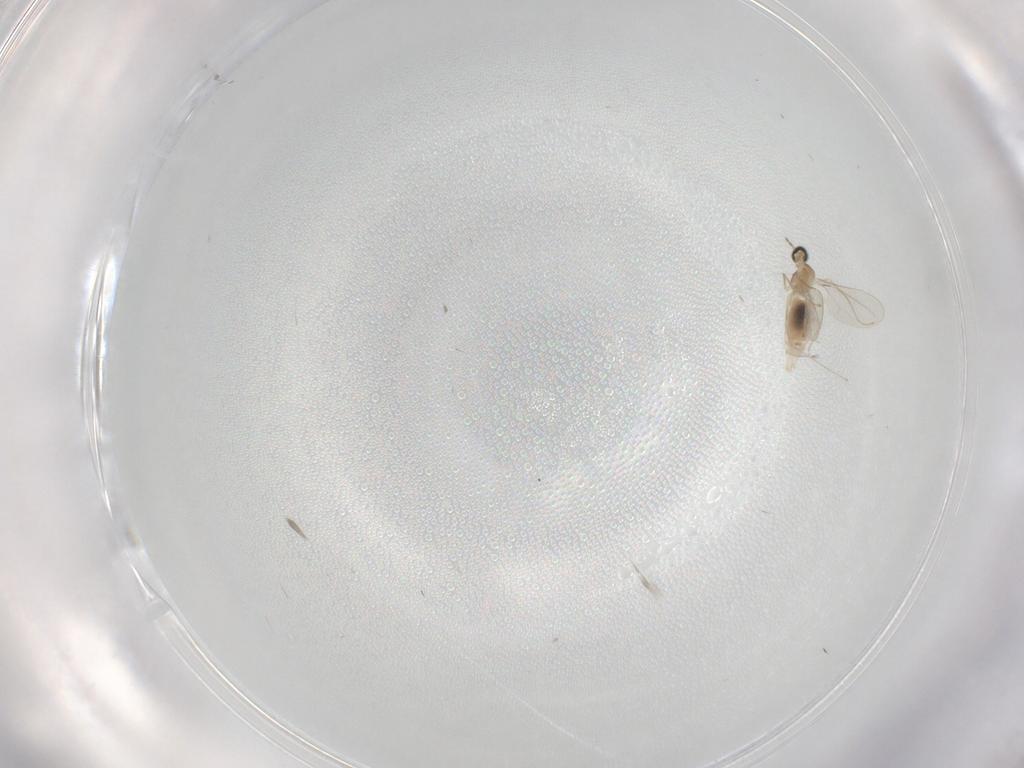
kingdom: Animalia
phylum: Arthropoda
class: Insecta
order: Diptera
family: Cecidomyiidae
